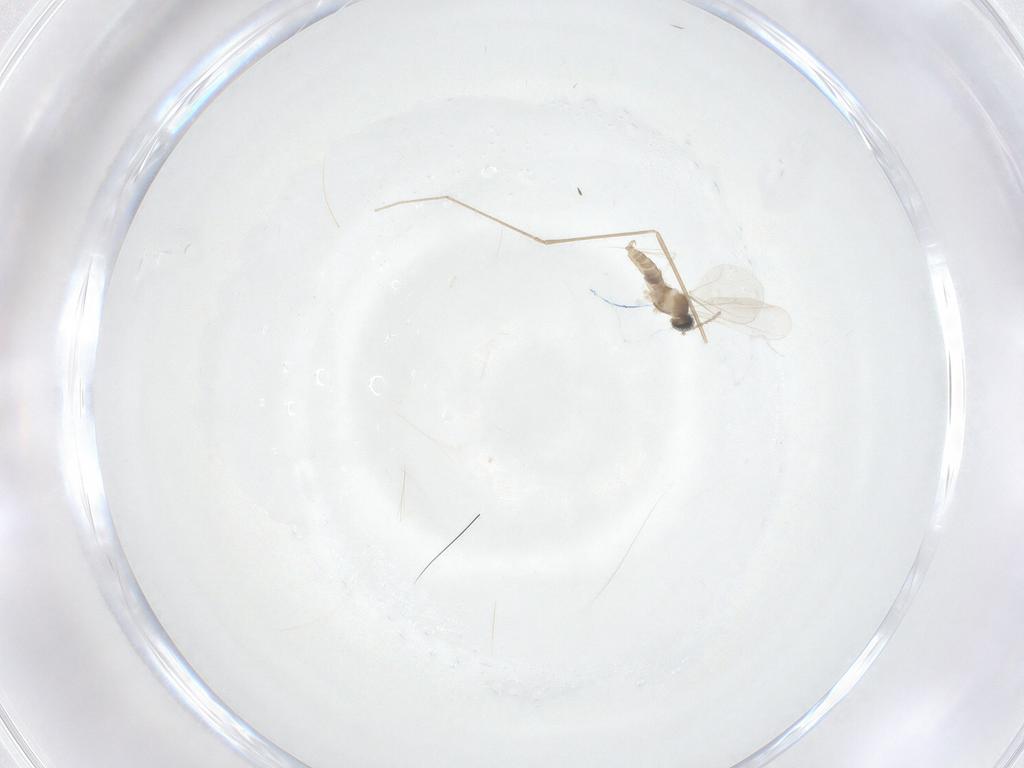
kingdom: Animalia
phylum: Arthropoda
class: Insecta
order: Diptera
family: Cecidomyiidae
